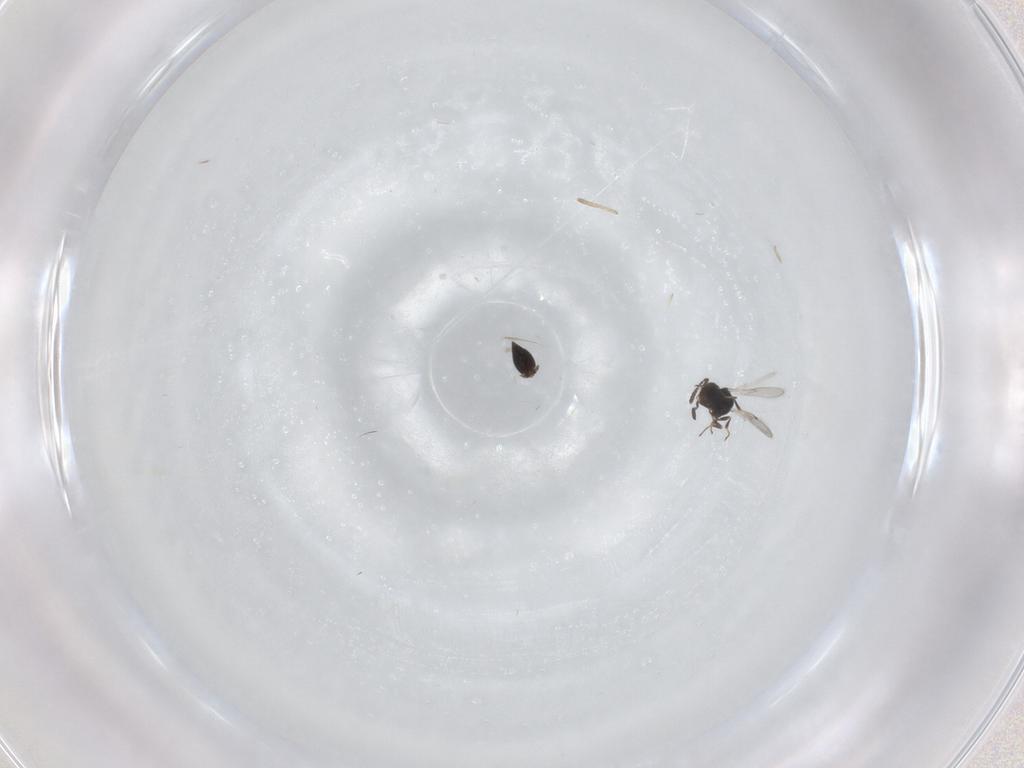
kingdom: Animalia
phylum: Arthropoda
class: Insecta
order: Hymenoptera
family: Scelionidae
